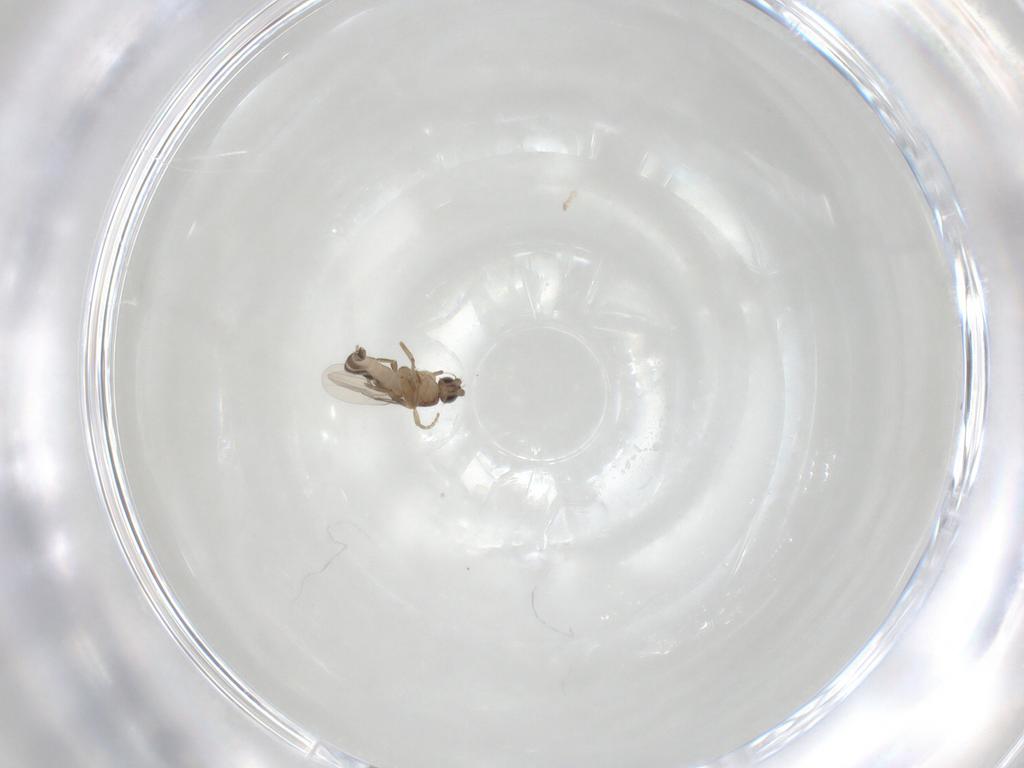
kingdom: Animalia
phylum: Arthropoda
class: Insecta
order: Diptera
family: Phoridae
